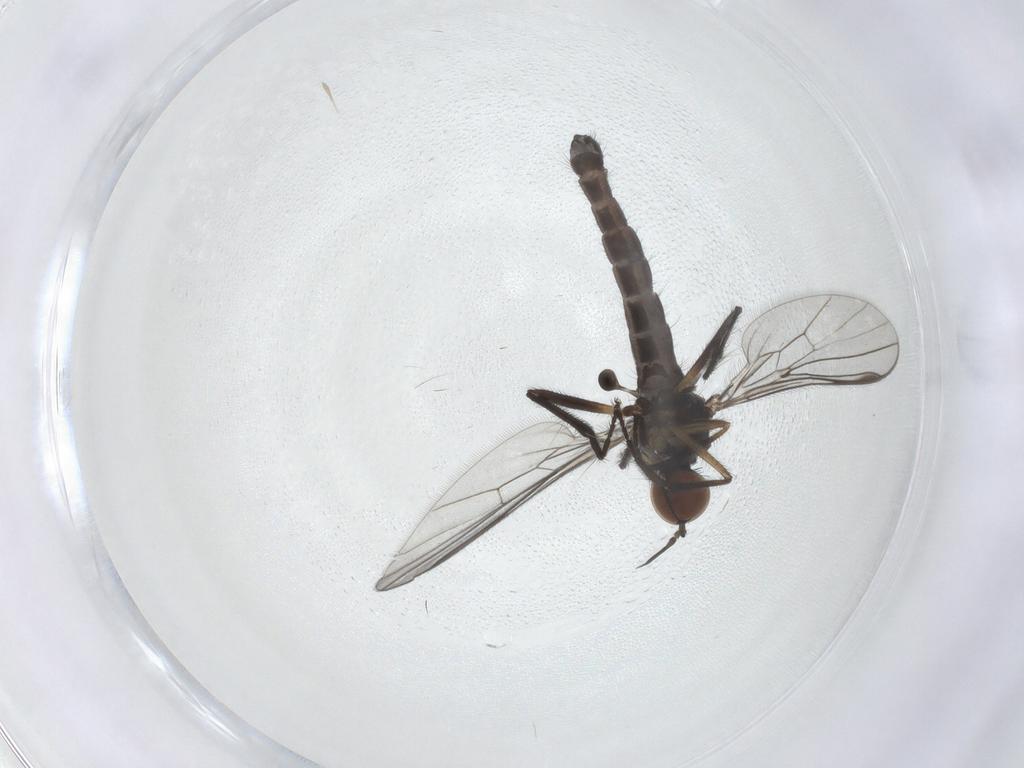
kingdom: Animalia
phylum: Arthropoda
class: Insecta
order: Diptera
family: Empididae
